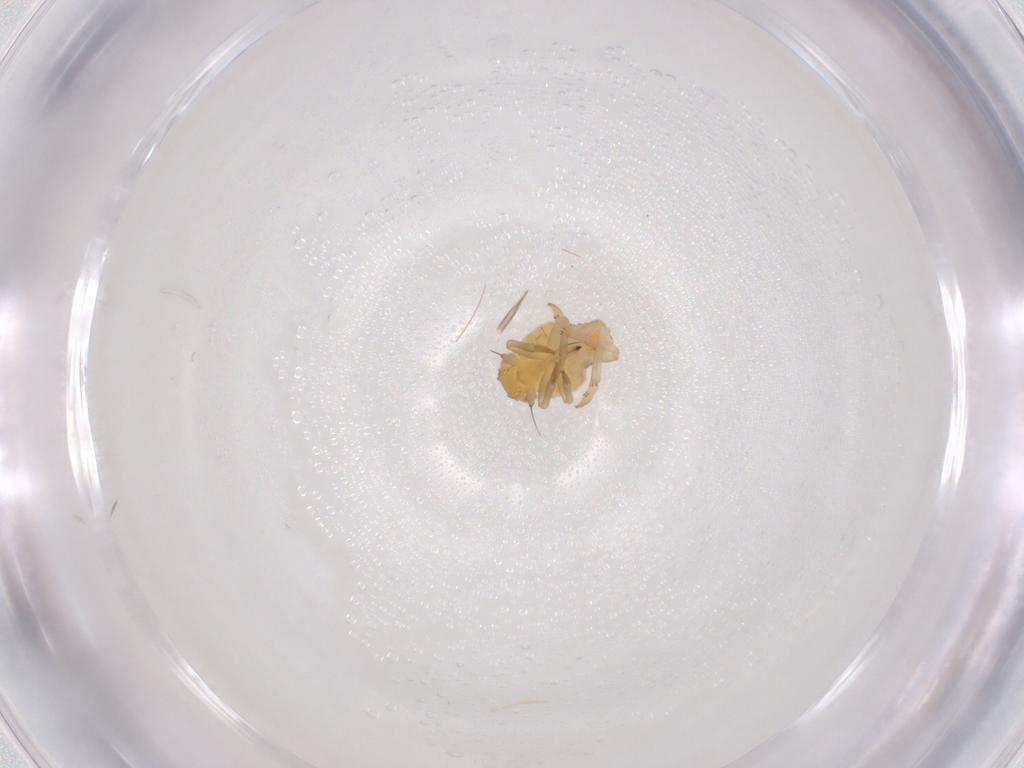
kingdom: Animalia
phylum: Arthropoda
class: Insecta
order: Hemiptera
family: Tropiduchidae
